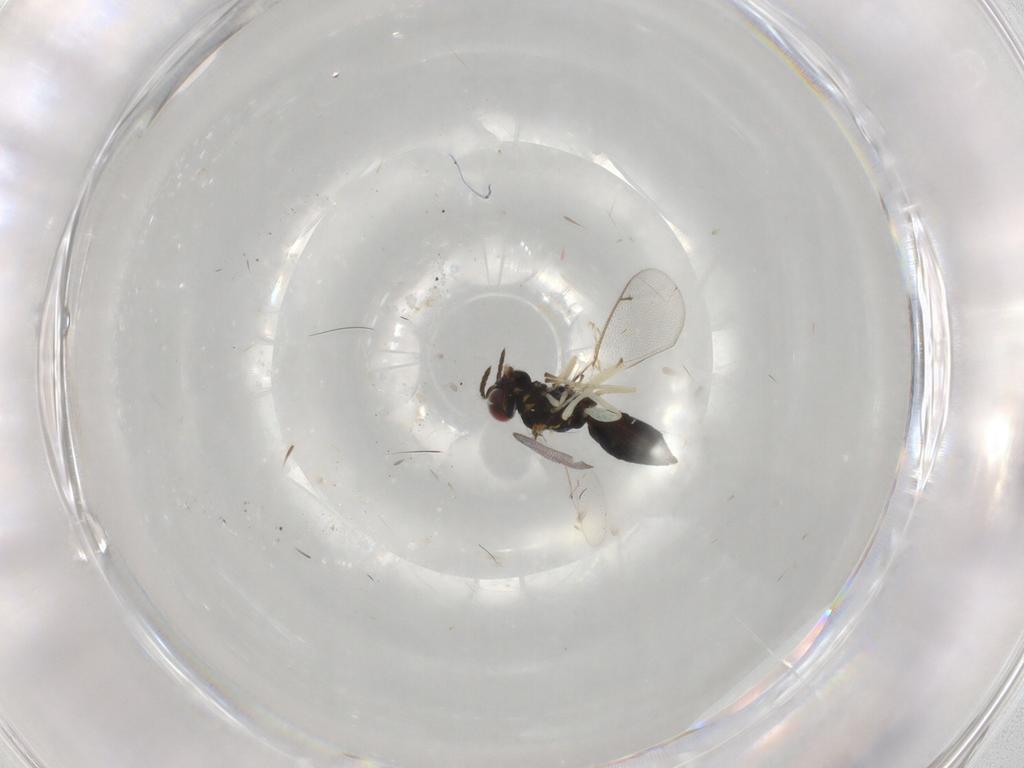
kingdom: Animalia
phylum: Arthropoda
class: Insecta
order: Hymenoptera
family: Eulophidae
